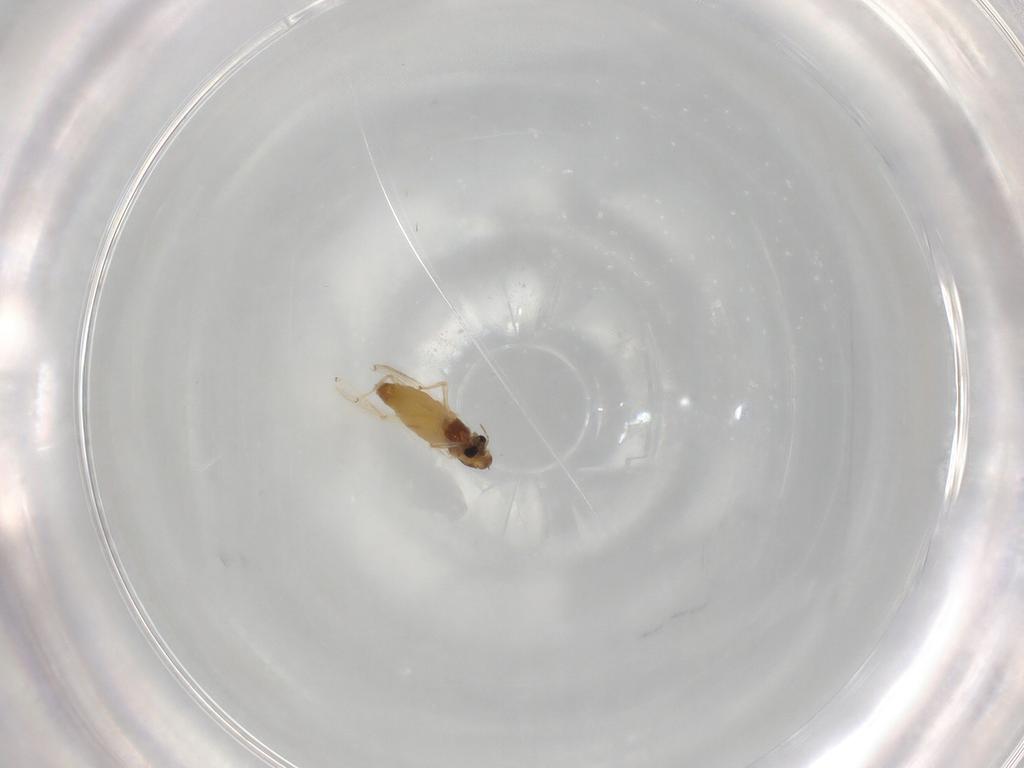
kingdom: Animalia
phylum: Arthropoda
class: Insecta
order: Diptera
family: Chironomidae
